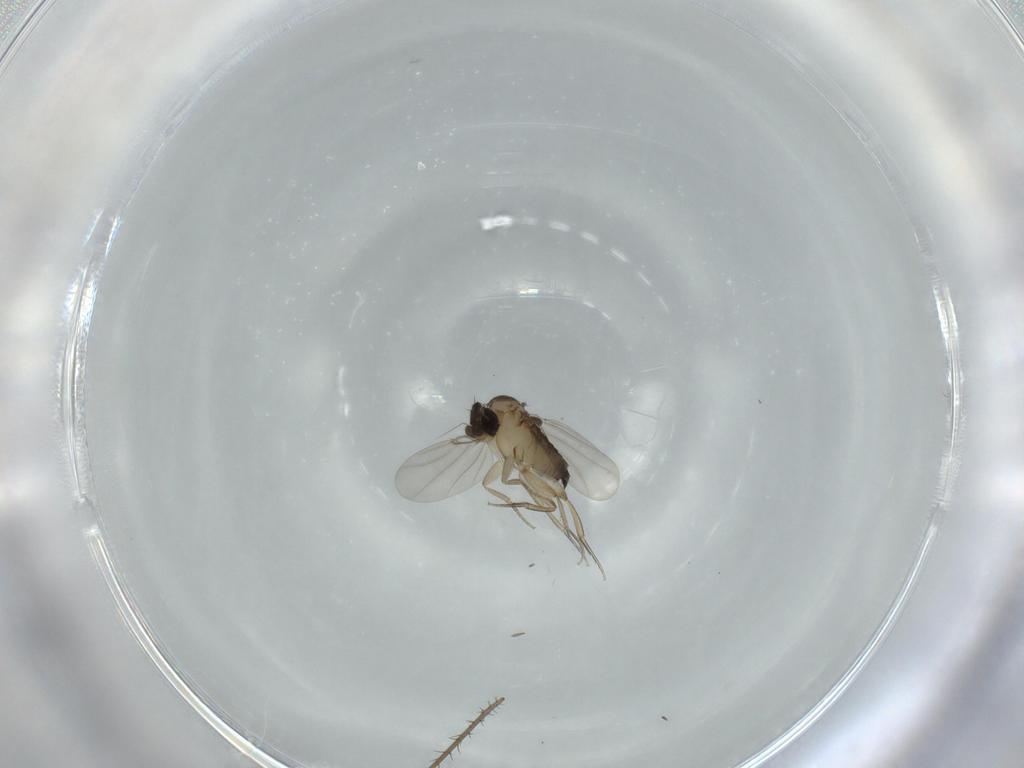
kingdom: Animalia
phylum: Arthropoda
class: Insecta
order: Diptera
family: Phoridae
